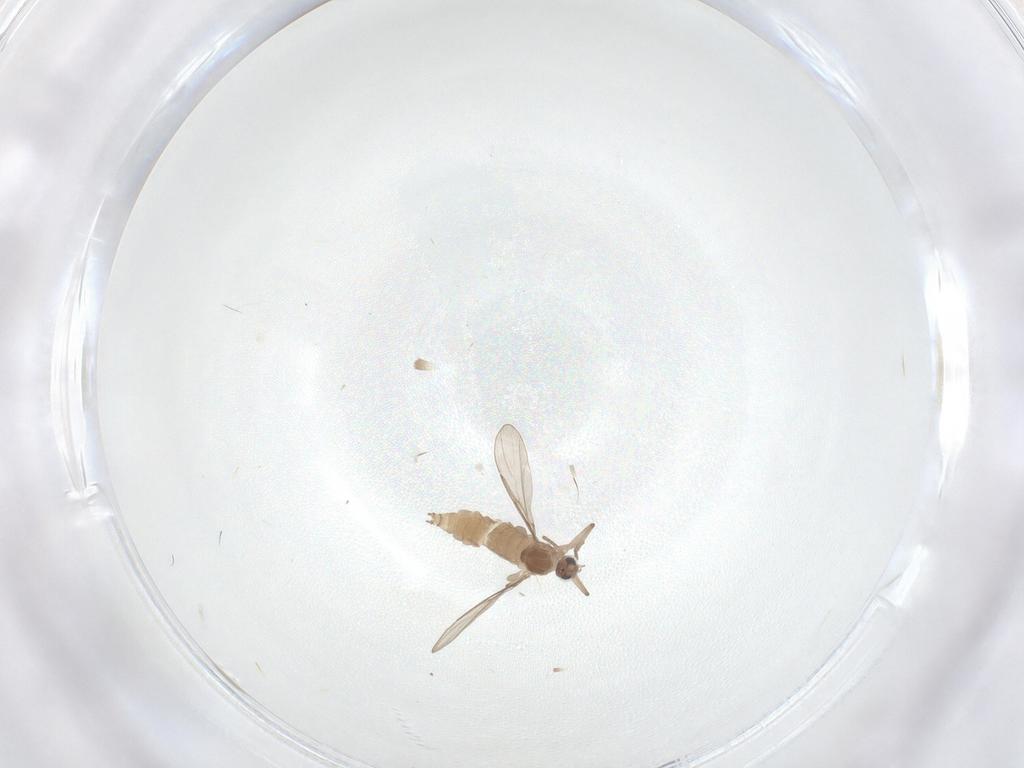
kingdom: Animalia
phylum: Arthropoda
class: Insecta
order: Diptera
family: Cecidomyiidae
